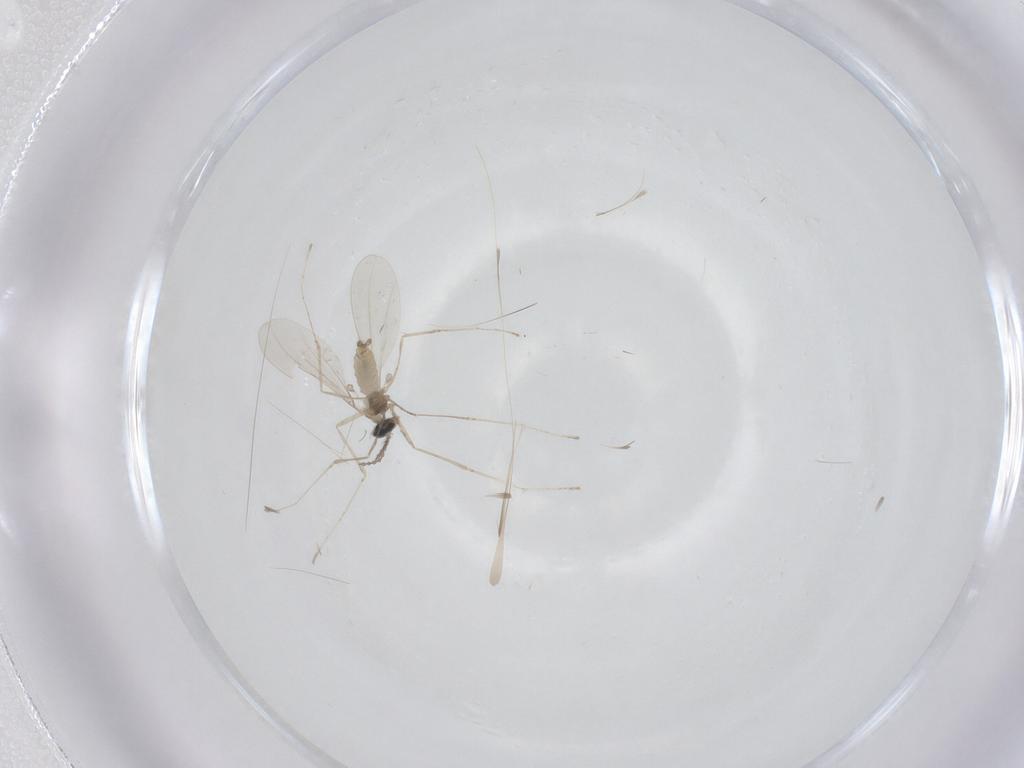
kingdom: Animalia
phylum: Arthropoda
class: Insecta
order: Diptera
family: Cecidomyiidae
